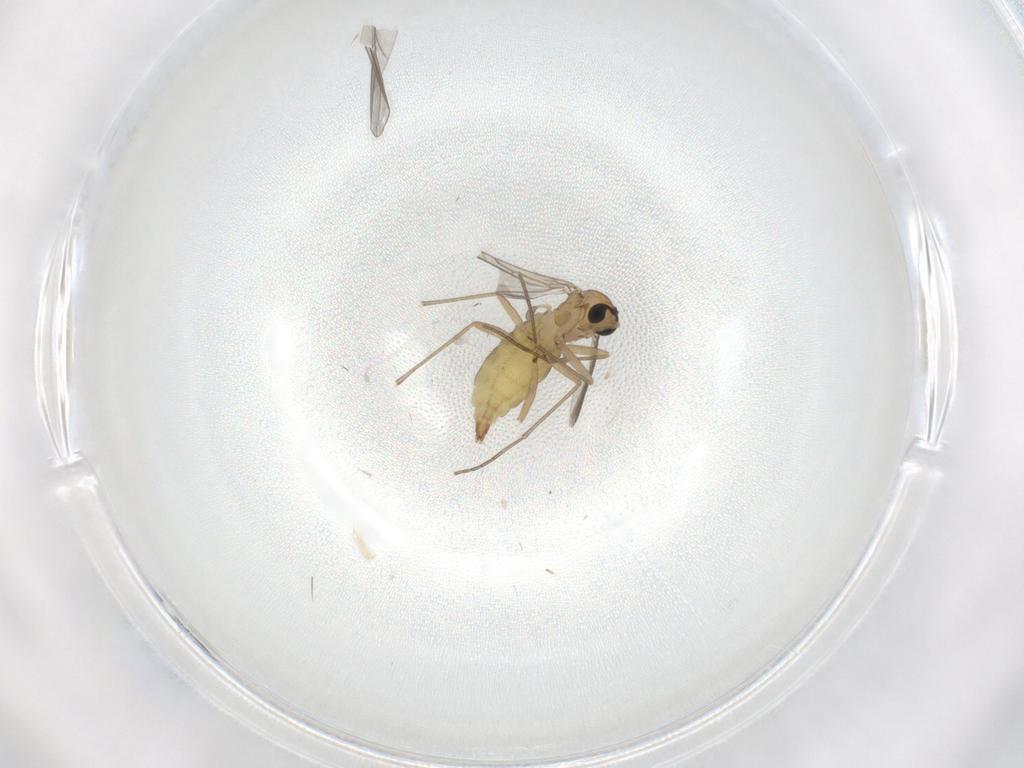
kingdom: Animalia
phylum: Arthropoda
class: Insecta
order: Diptera
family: Sciaridae
